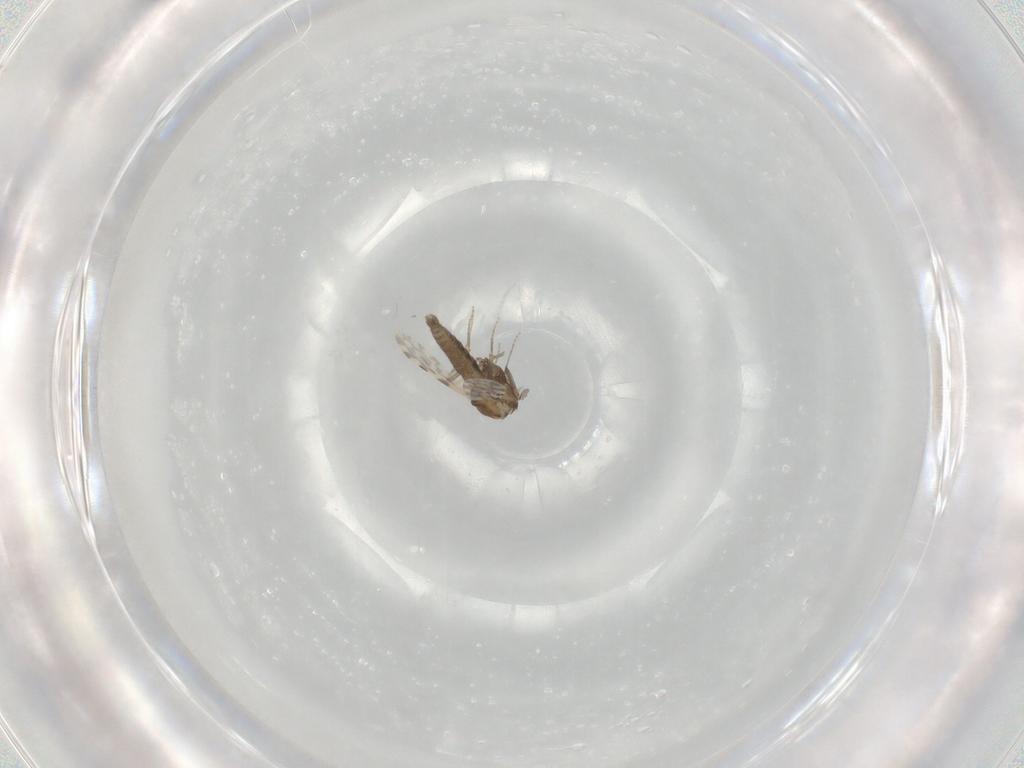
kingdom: Animalia
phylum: Arthropoda
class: Insecta
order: Diptera
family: Ceratopogonidae
